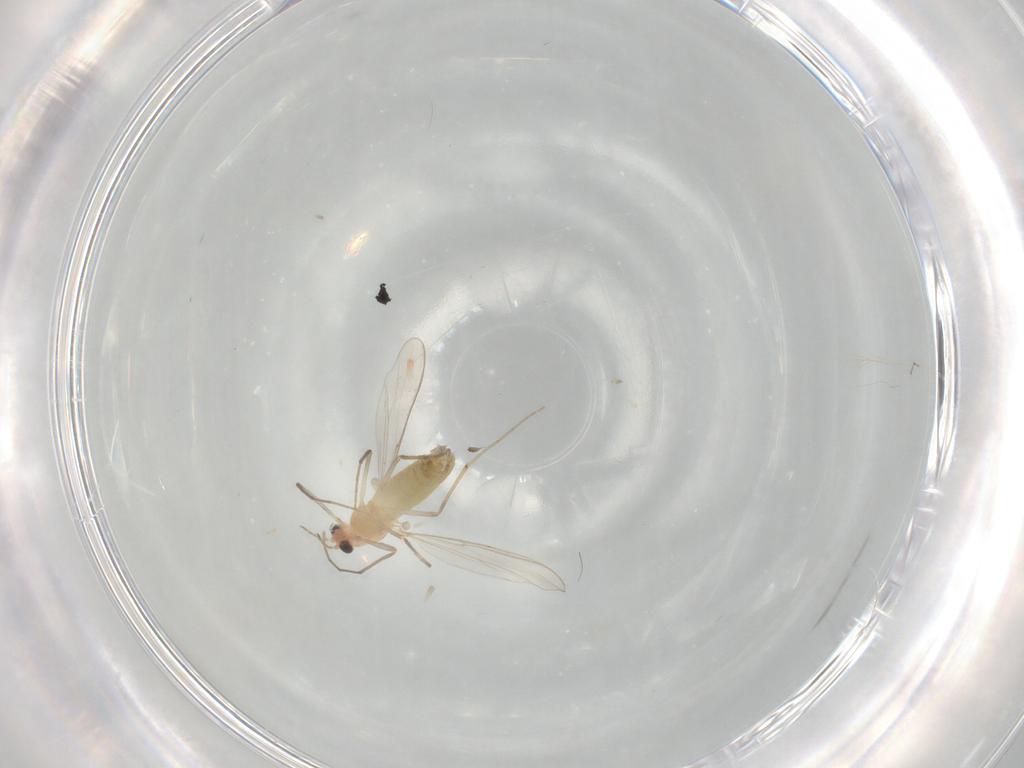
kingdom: Animalia
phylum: Arthropoda
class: Insecta
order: Diptera
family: Chironomidae
